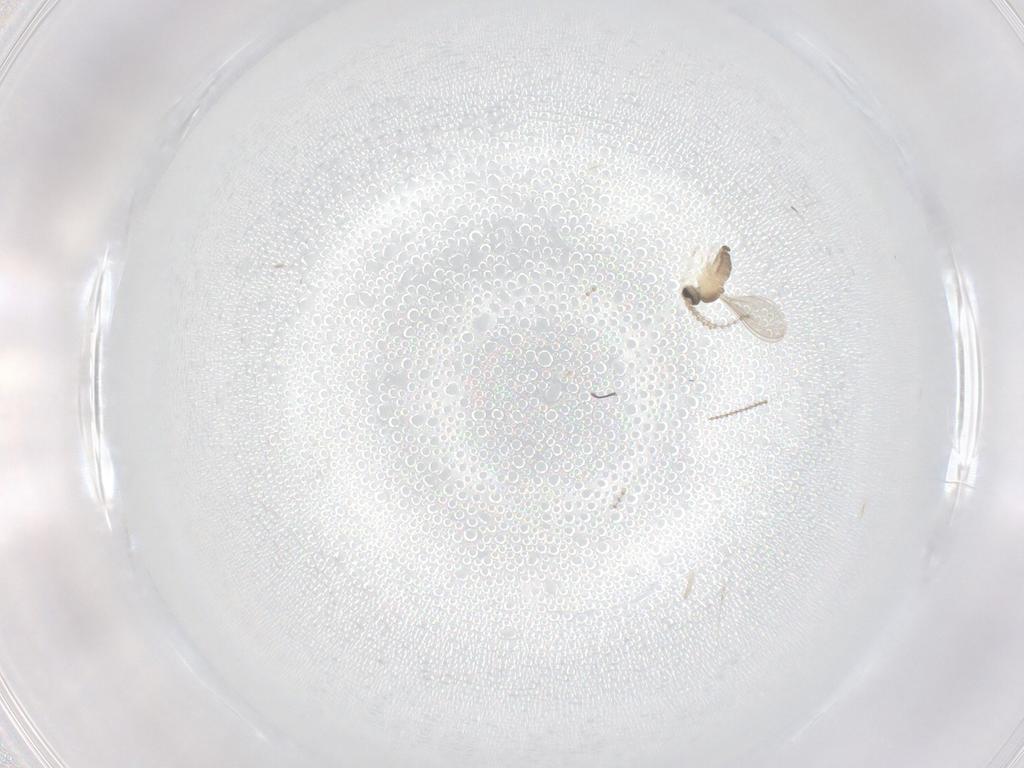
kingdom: Animalia
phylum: Arthropoda
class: Insecta
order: Diptera
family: Cecidomyiidae
